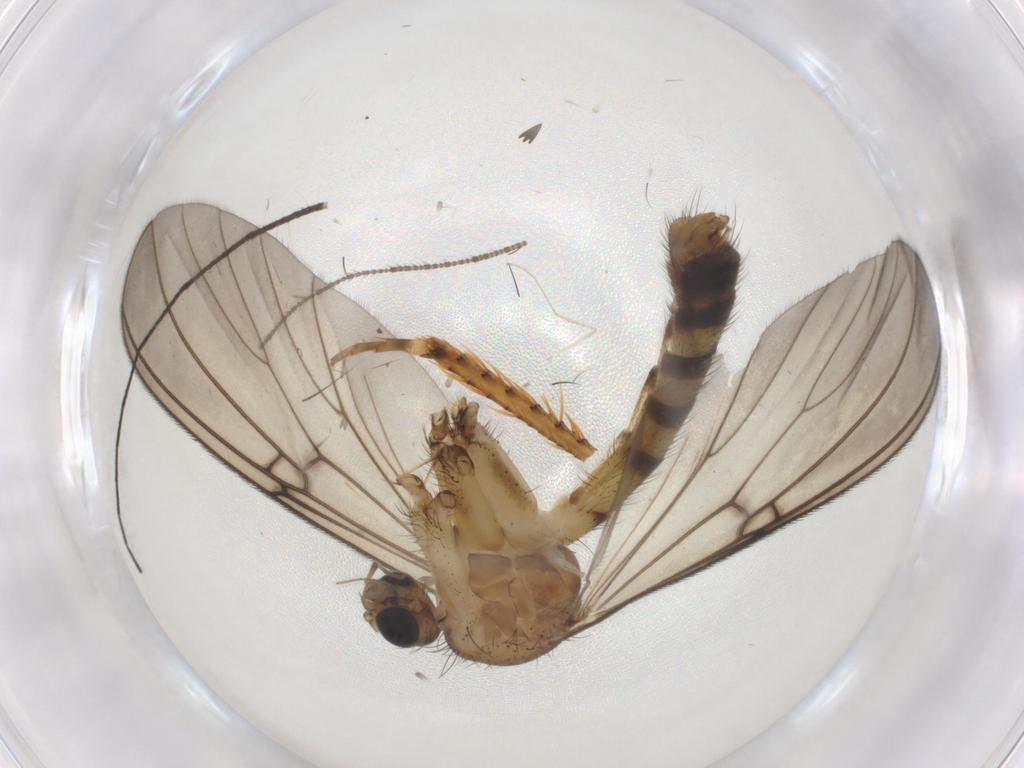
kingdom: Animalia
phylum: Arthropoda
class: Insecta
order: Diptera
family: Mycetophilidae
